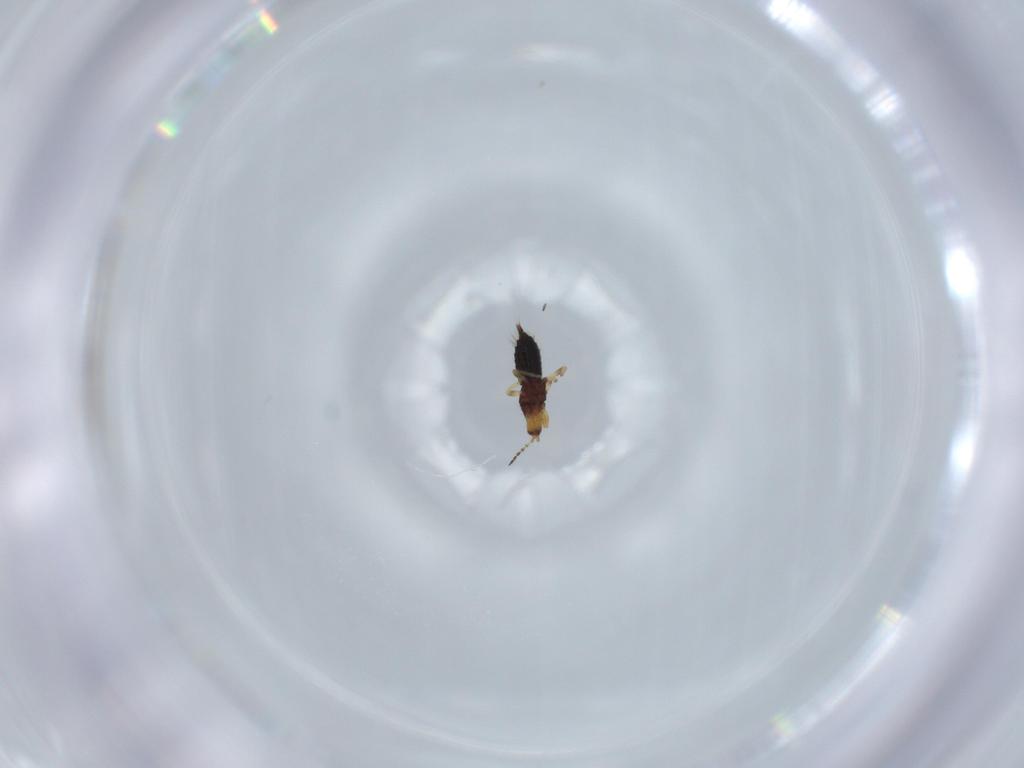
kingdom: Animalia
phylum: Arthropoda
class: Insecta
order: Thysanoptera
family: Phlaeothripidae
